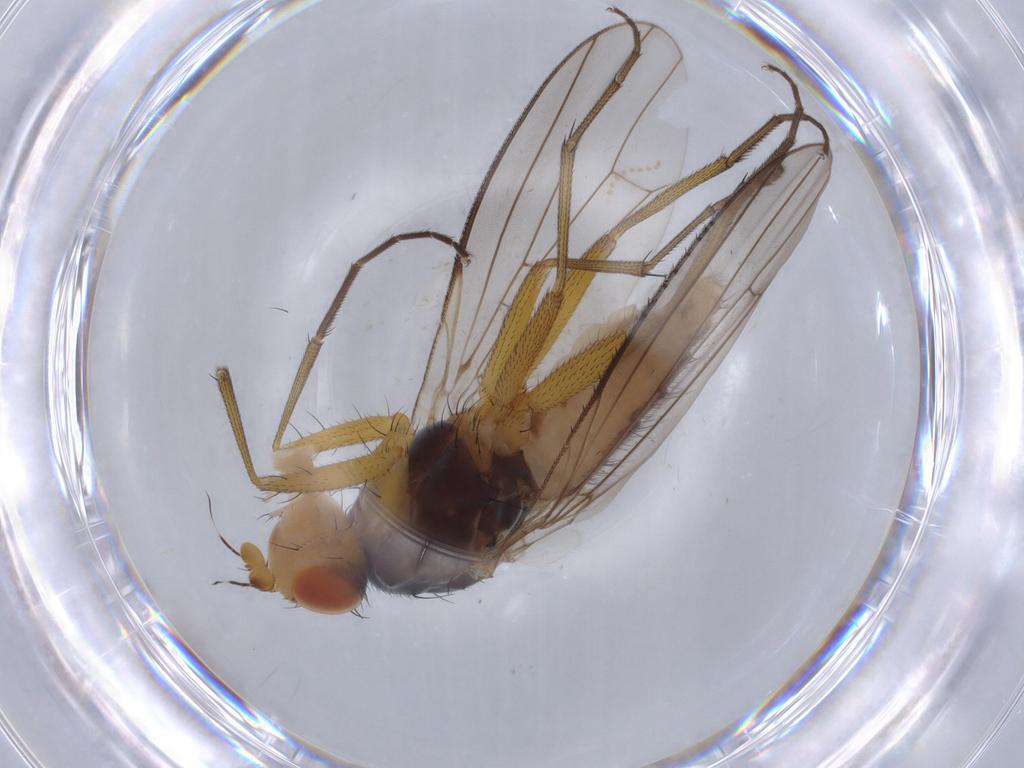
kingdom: Animalia
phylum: Arthropoda
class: Insecta
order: Diptera
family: Heleomyzidae
